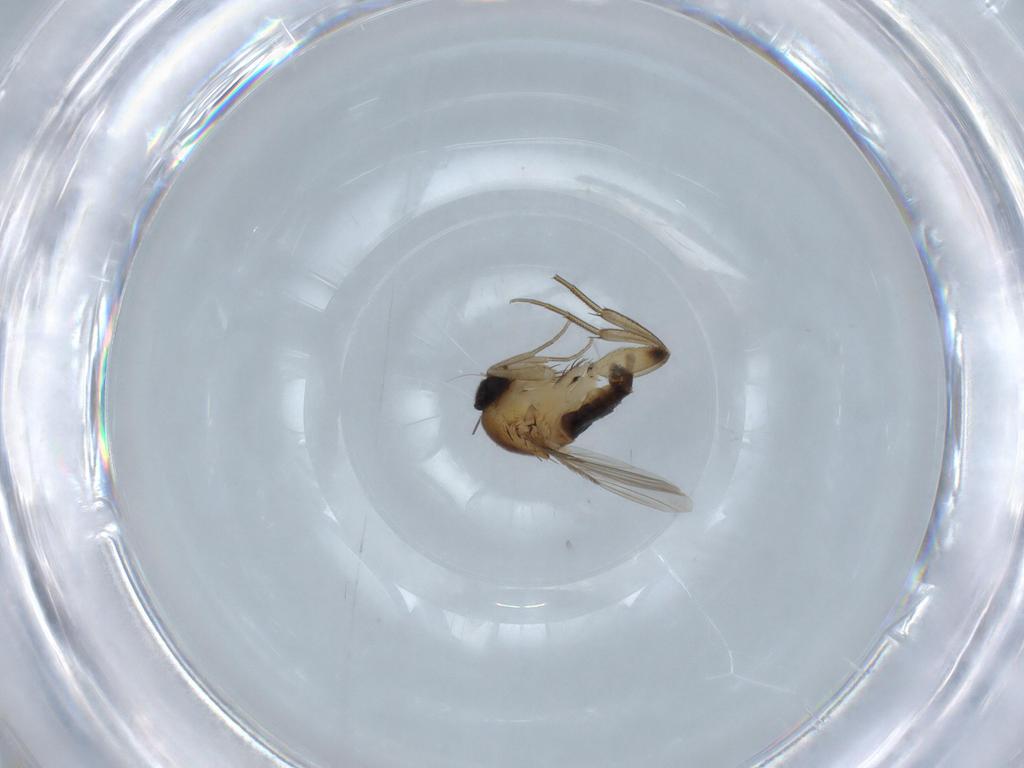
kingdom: Animalia
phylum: Arthropoda
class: Insecta
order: Diptera
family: Phoridae
